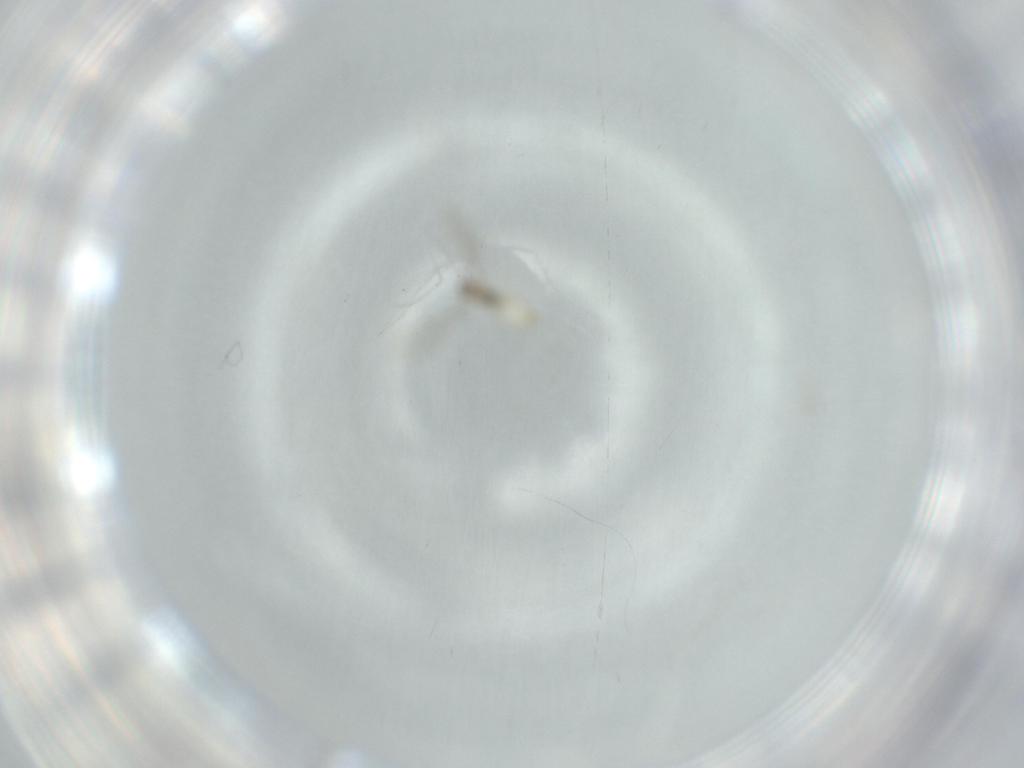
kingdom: Animalia
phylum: Arthropoda
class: Insecta
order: Diptera
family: Cecidomyiidae
